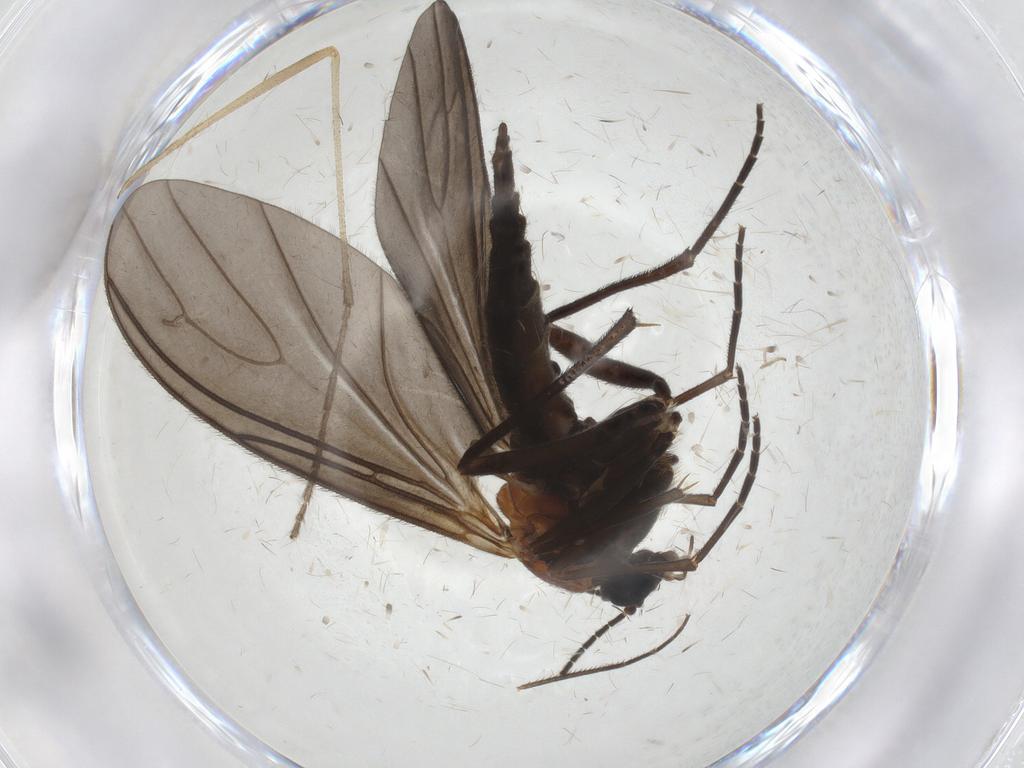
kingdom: Animalia
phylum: Arthropoda
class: Insecta
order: Diptera
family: Sciaridae
